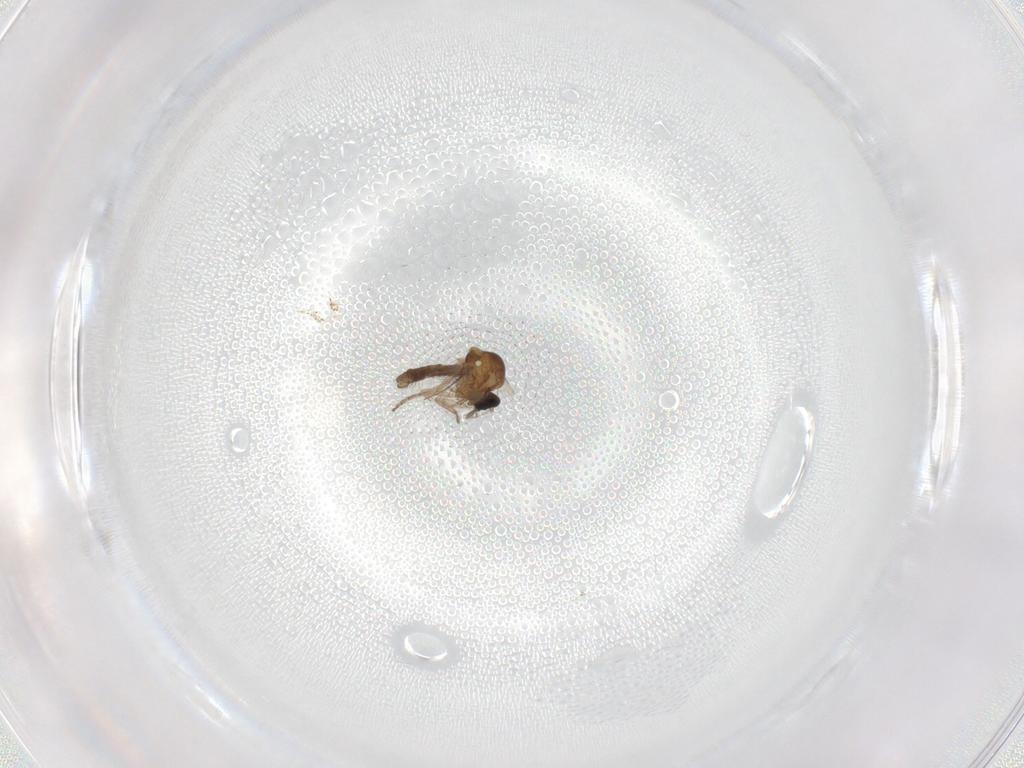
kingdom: Animalia
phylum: Arthropoda
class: Insecta
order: Diptera
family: Chironomidae
